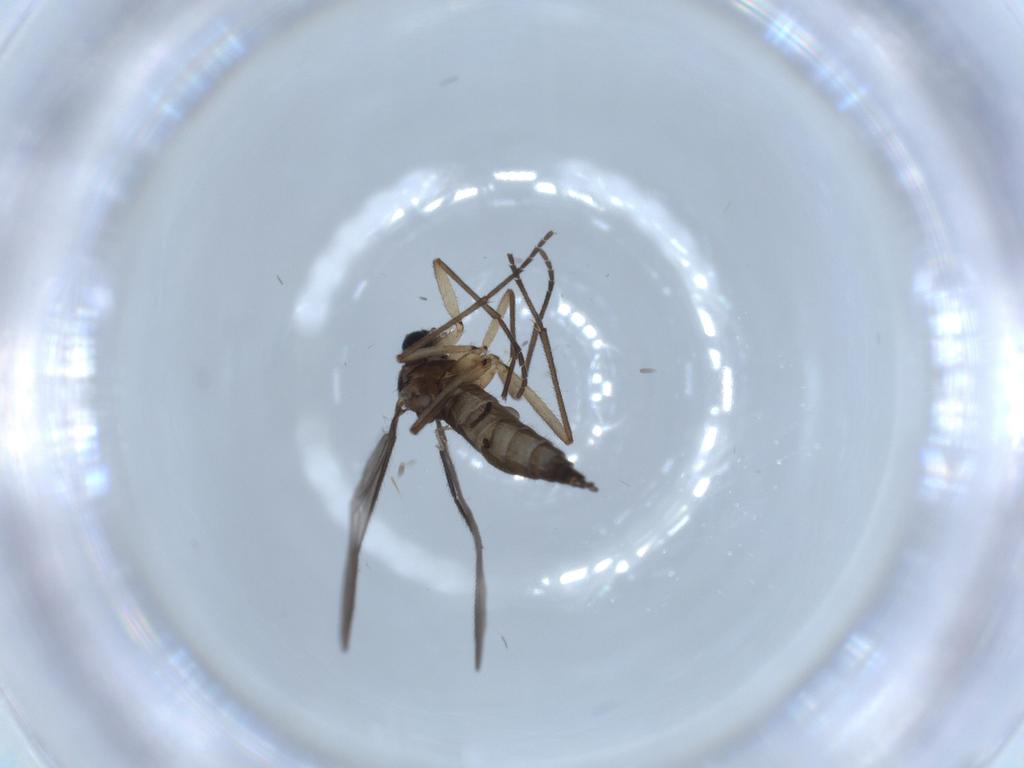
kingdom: Animalia
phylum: Arthropoda
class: Insecta
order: Diptera
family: Sciaridae
